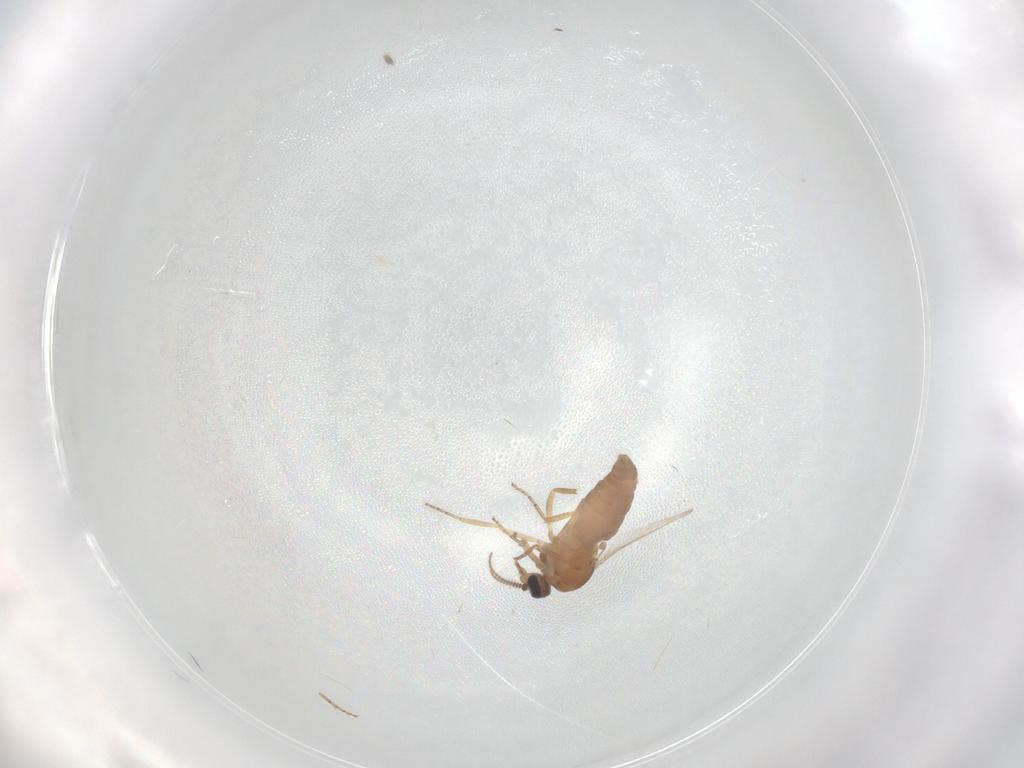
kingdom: Animalia
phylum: Arthropoda
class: Insecta
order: Diptera
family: Ceratopogonidae
